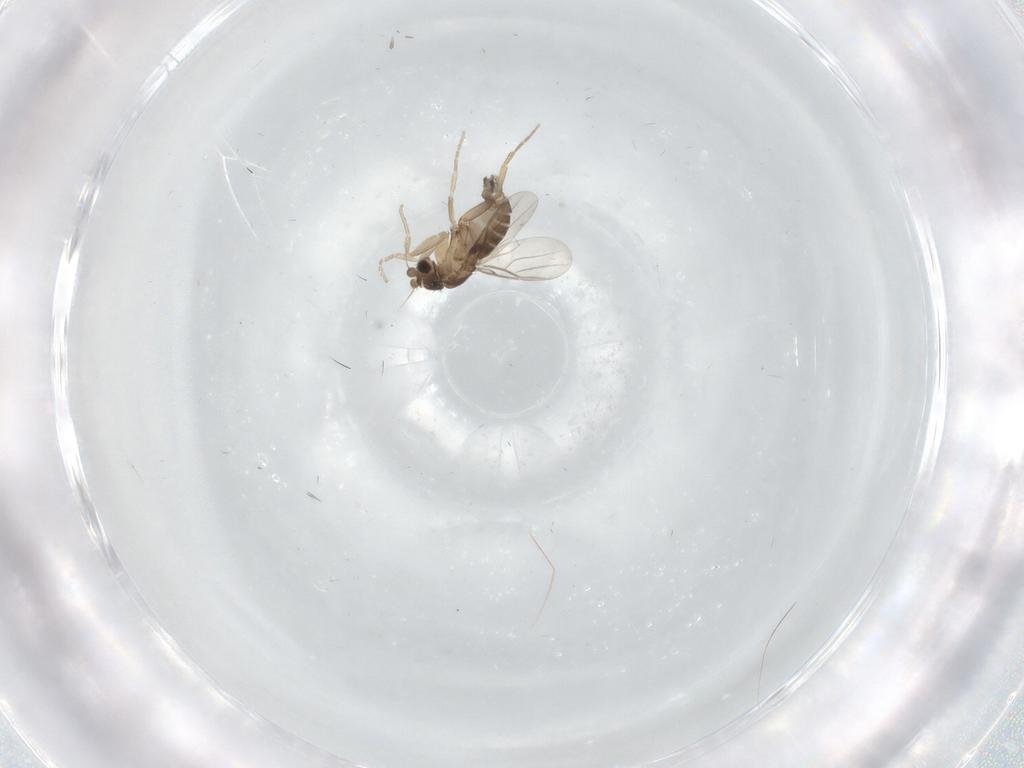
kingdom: Animalia
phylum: Arthropoda
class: Insecta
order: Diptera
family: Phoridae
